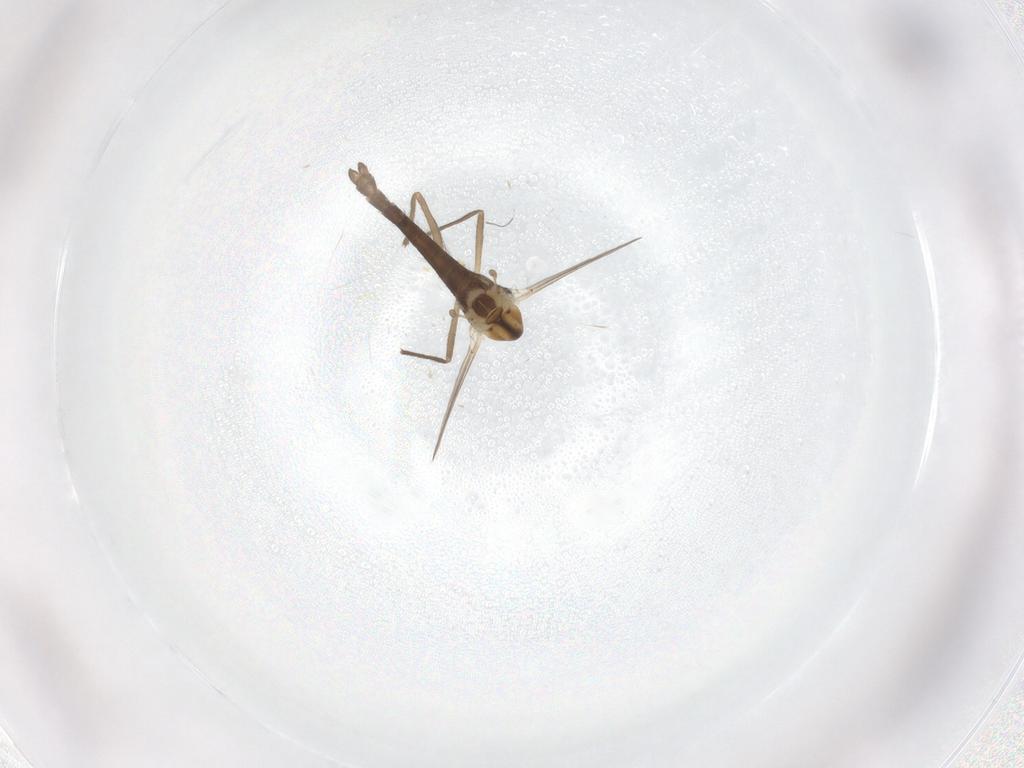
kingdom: Animalia
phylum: Arthropoda
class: Insecta
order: Diptera
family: Chironomidae
